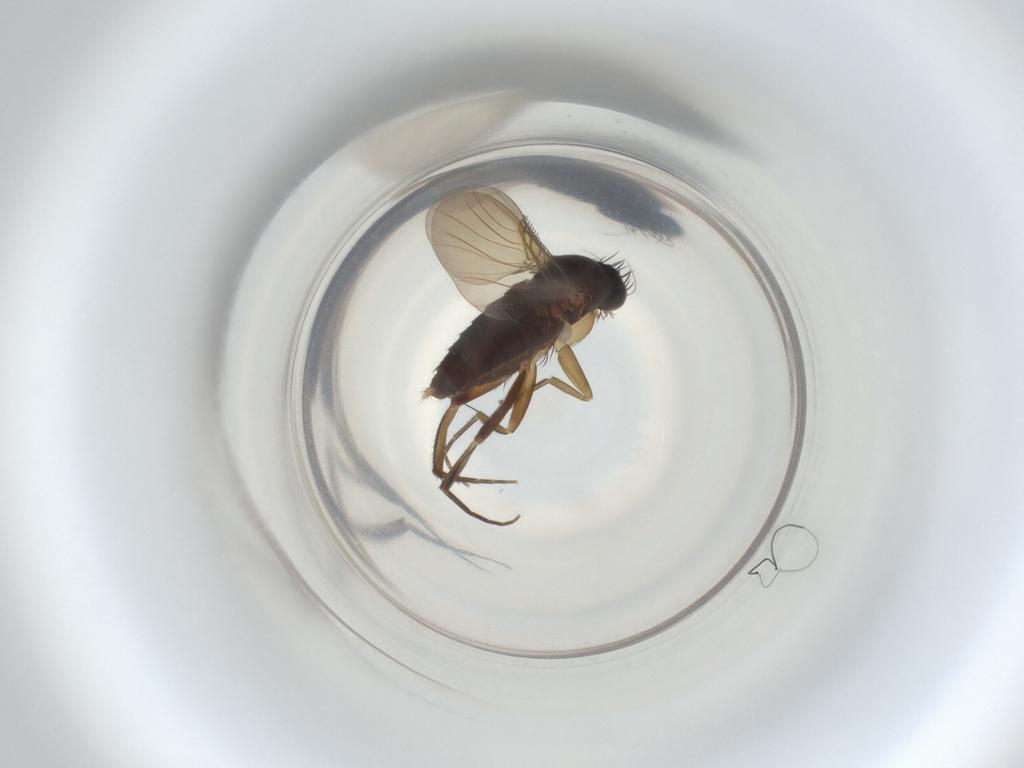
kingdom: Animalia
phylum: Arthropoda
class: Insecta
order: Diptera
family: Phoridae
